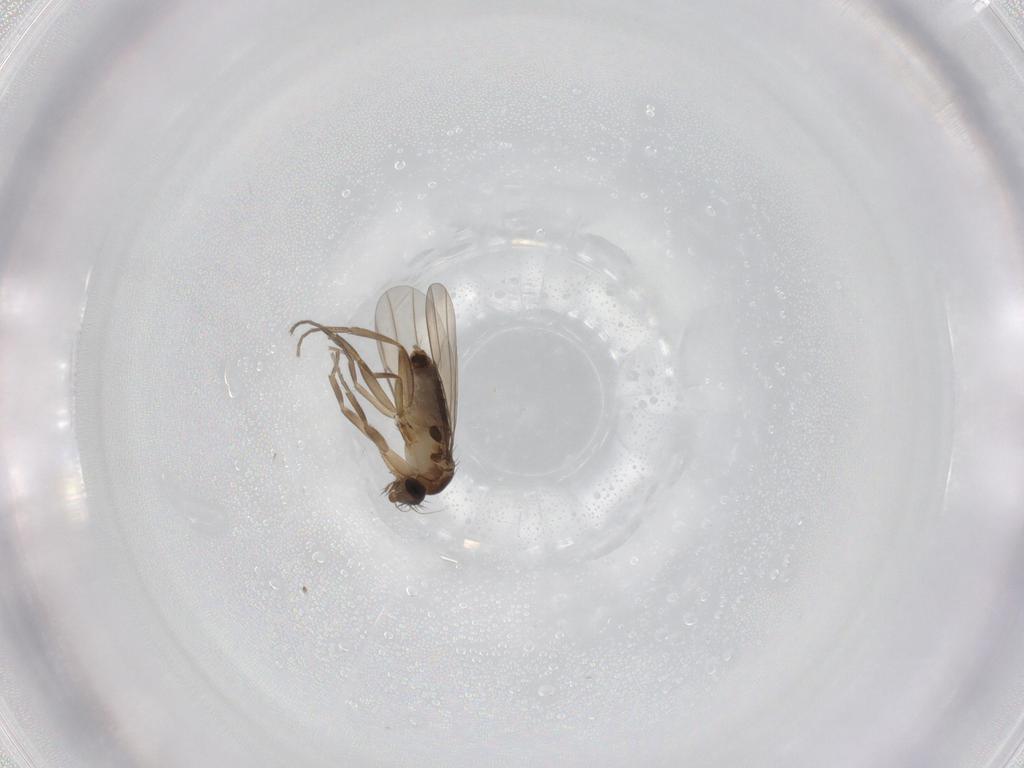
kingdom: Animalia
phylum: Arthropoda
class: Insecta
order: Diptera
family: Phoridae
